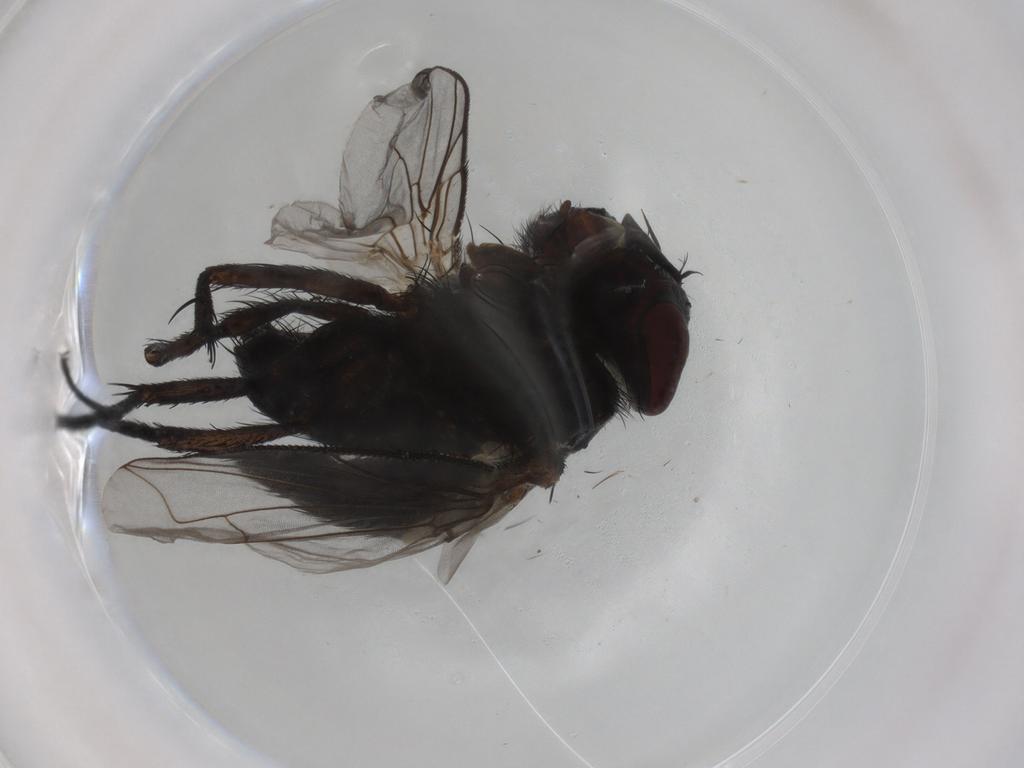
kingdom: Animalia
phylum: Arthropoda
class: Insecta
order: Diptera
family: Tachinidae
